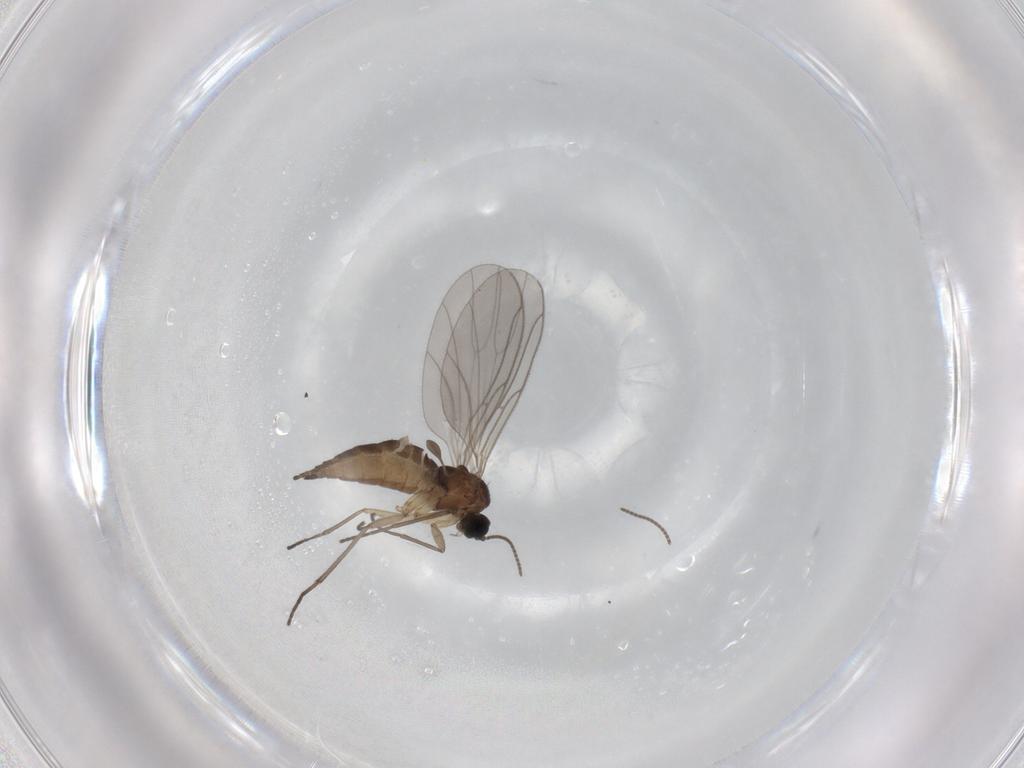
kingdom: Animalia
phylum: Arthropoda
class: Insecta
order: Diptera
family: Sciaridae
